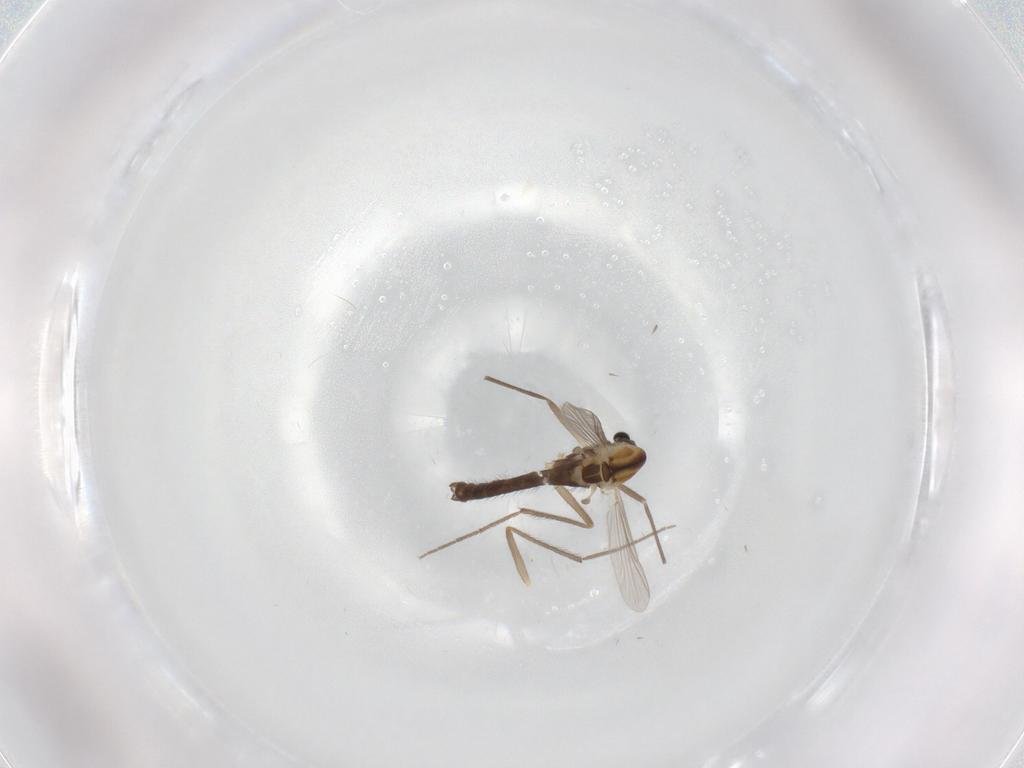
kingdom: Animalia
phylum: Arthropoda
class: Insecta
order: Diptera
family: Chironomidae
